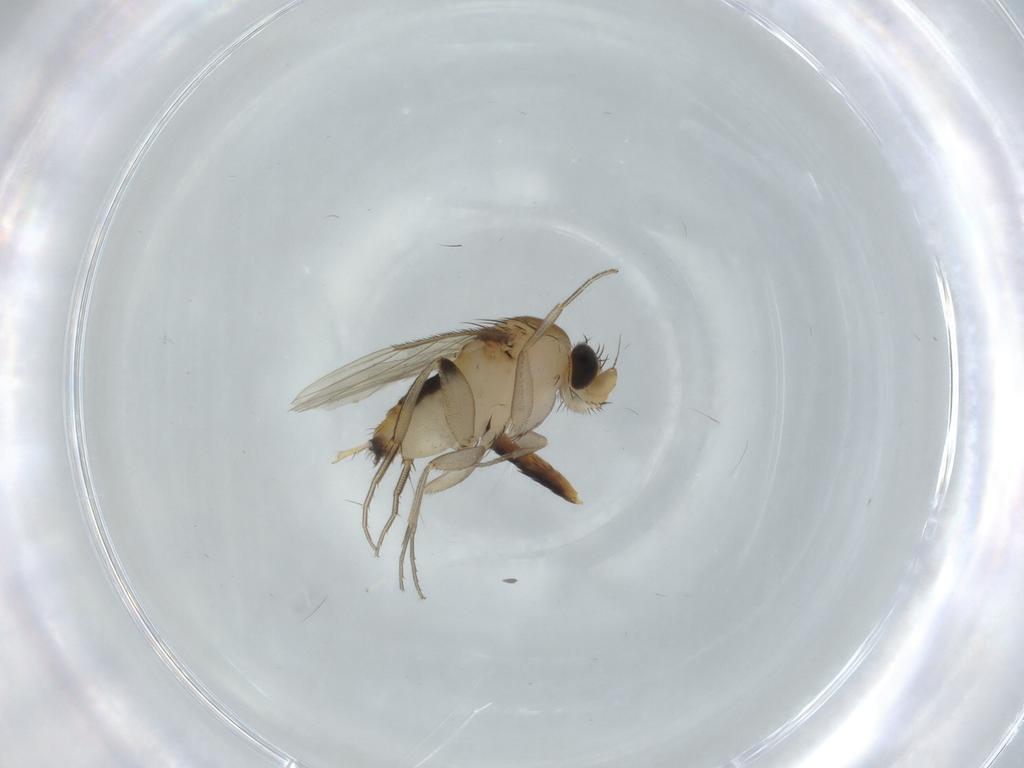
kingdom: Animalia
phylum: Arthropoda
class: Insecta
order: Diptera
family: Phoridae
